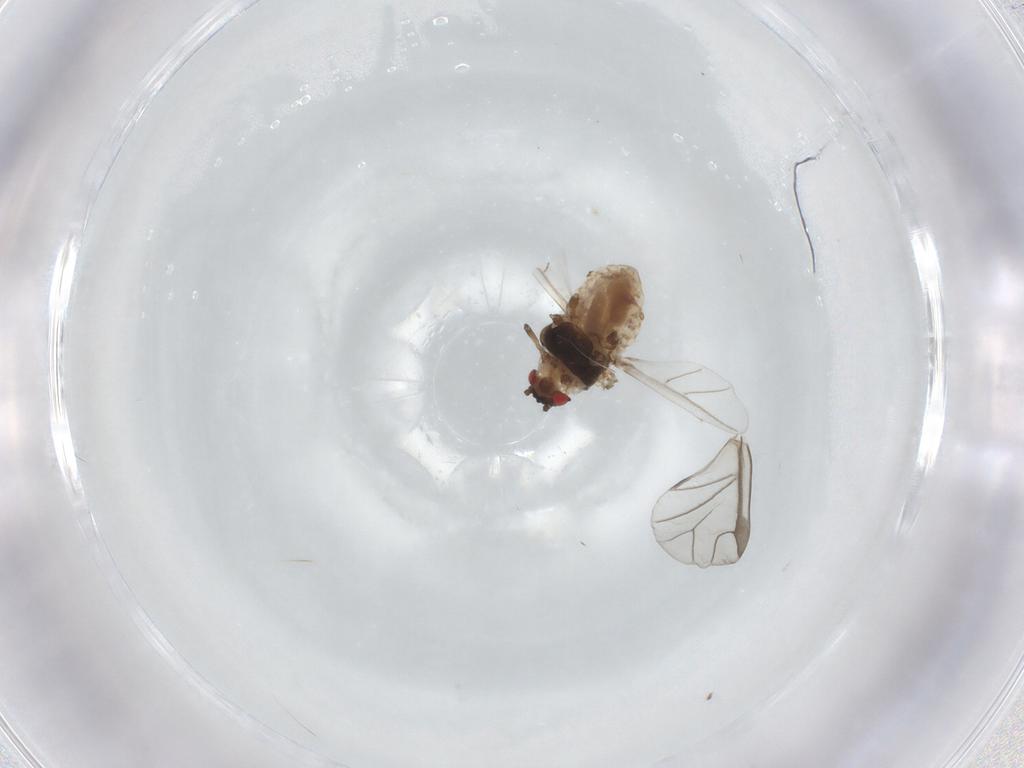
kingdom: Animalia
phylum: Arthropoda
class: Insecta
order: Hemiptera
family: Aphididae
